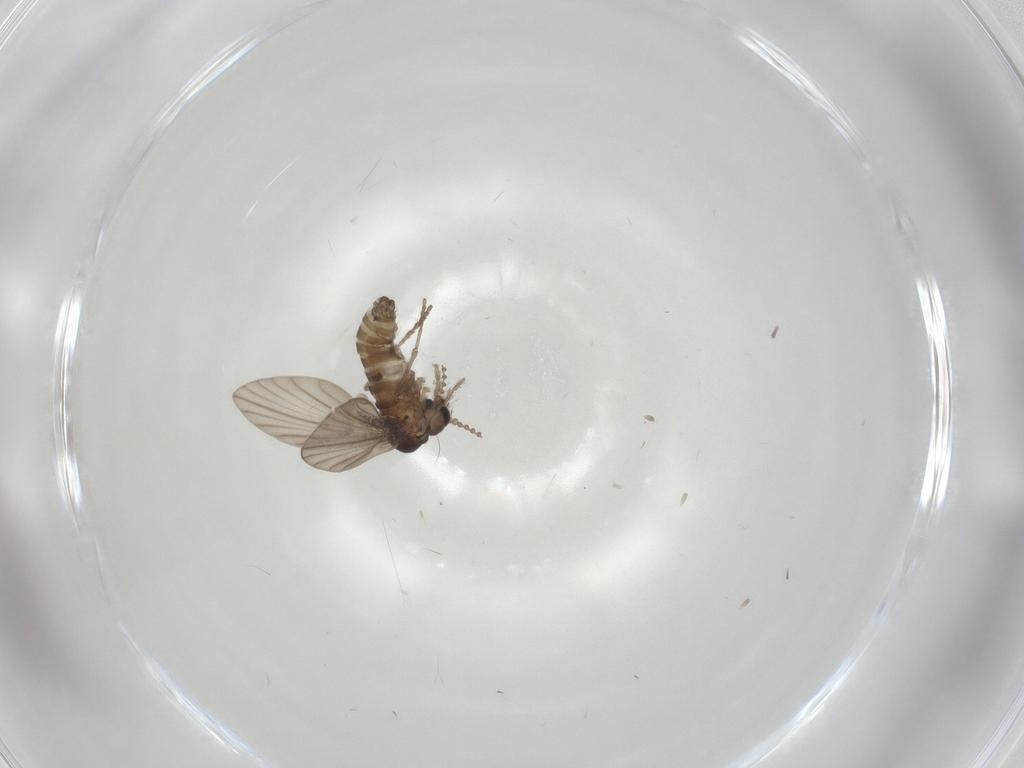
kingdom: Animalia
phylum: Arthropoda
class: Insecta
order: Diptera
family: Psychodidae
